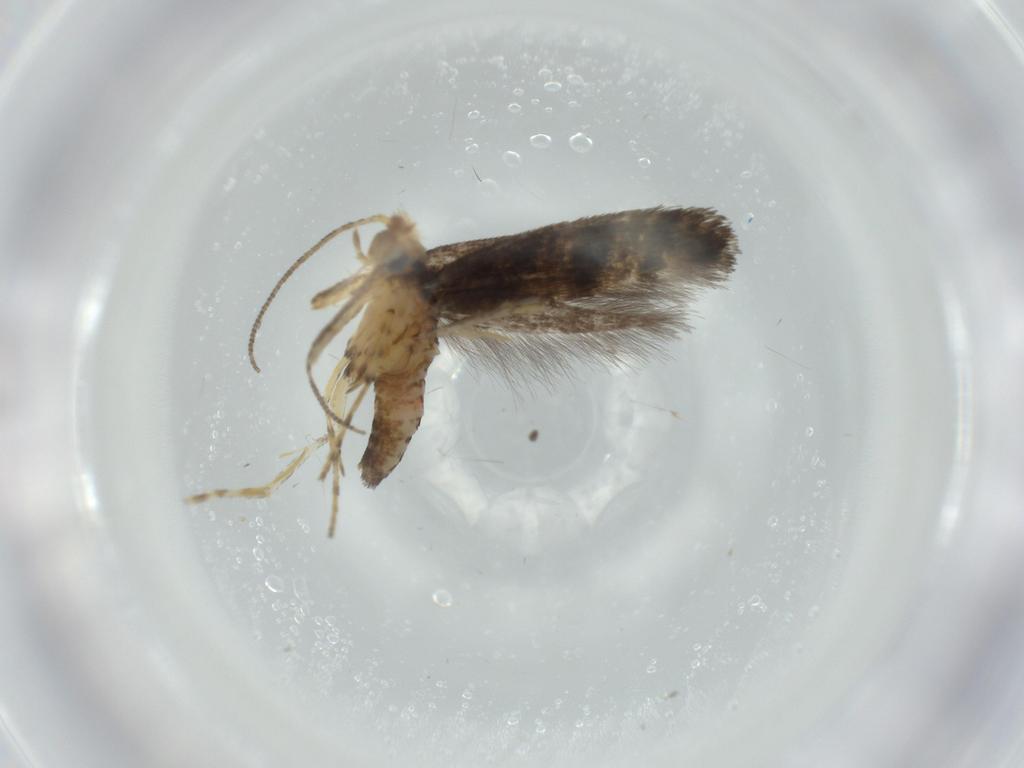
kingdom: Animalia
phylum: Arthropoda
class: Insecta
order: Lepidoptera
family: Argyresthiidae
